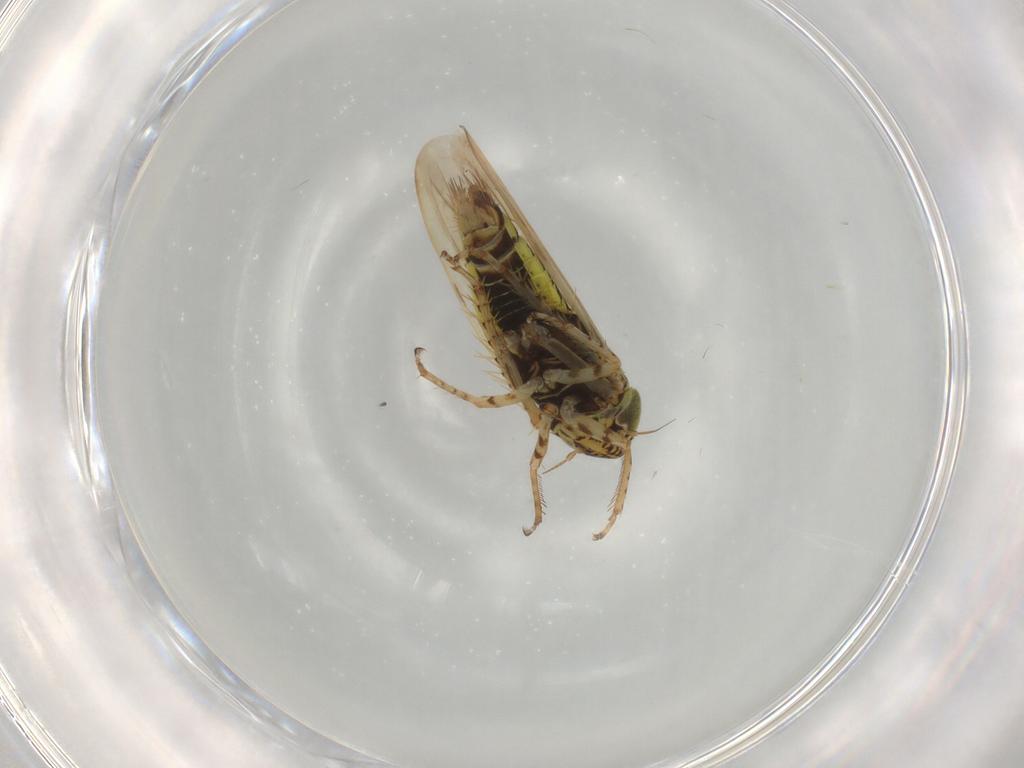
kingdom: Animalia
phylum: Arthropoda
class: Insecta
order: Hemiptera
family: Cicadellidae
